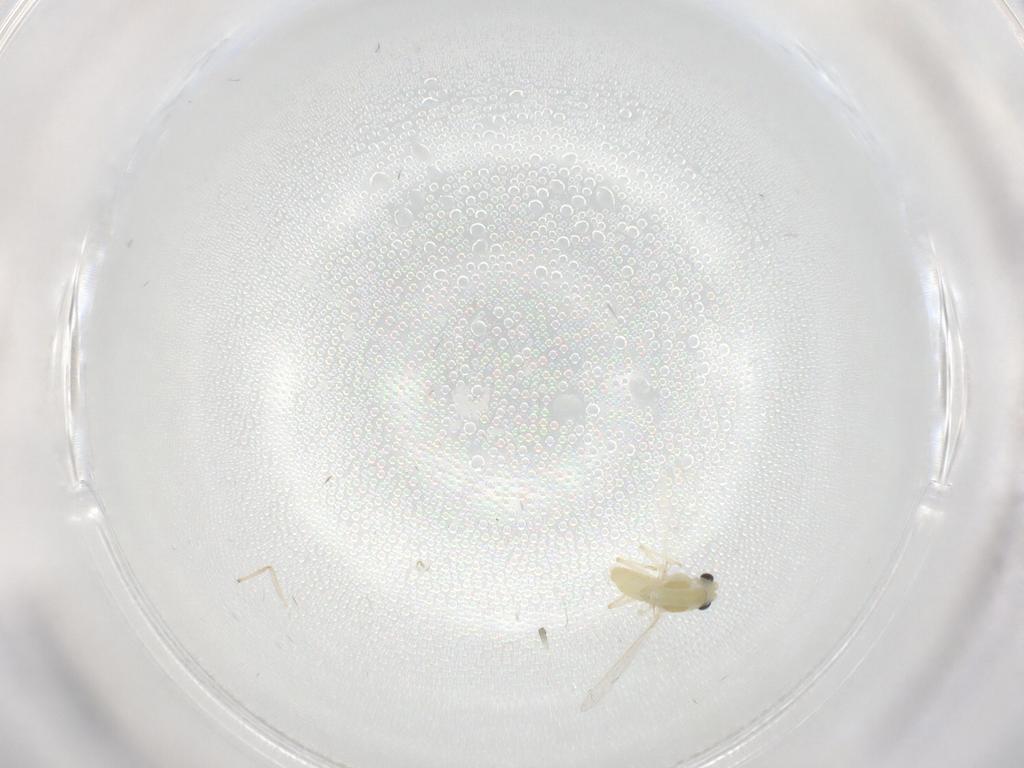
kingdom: Animalia
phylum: Arthropoda
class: Insecta
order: Diptera
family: Chironomidae
